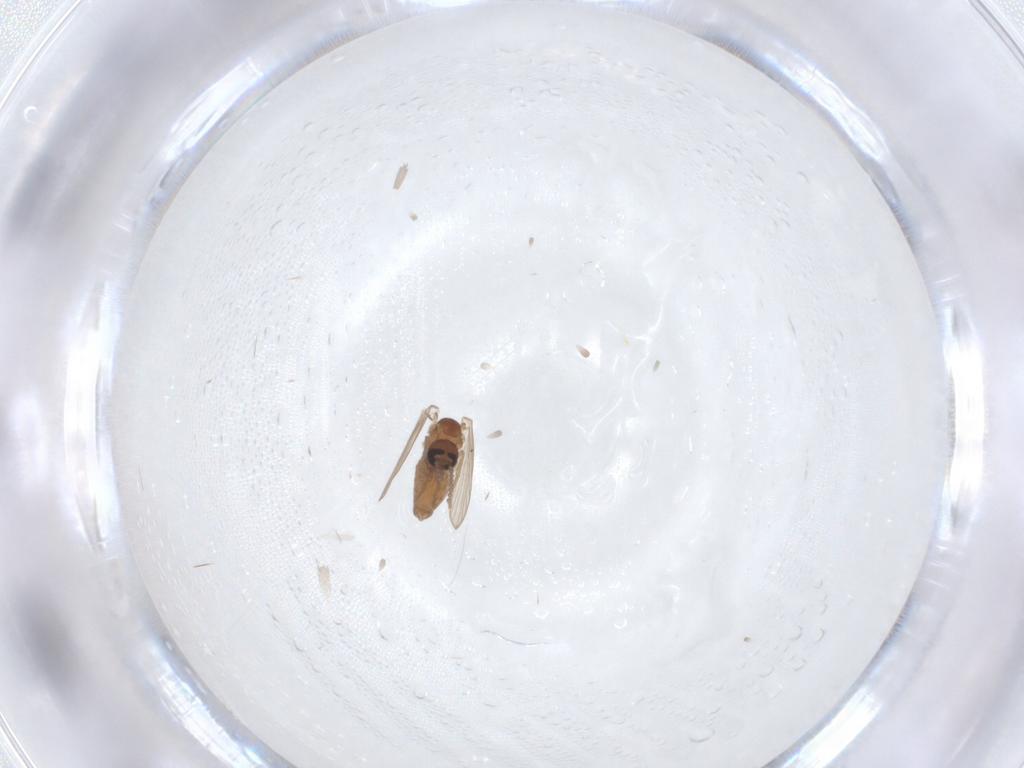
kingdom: Animalia
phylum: Arthropoda
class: Insecta
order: Diptera
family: Psychodidae
